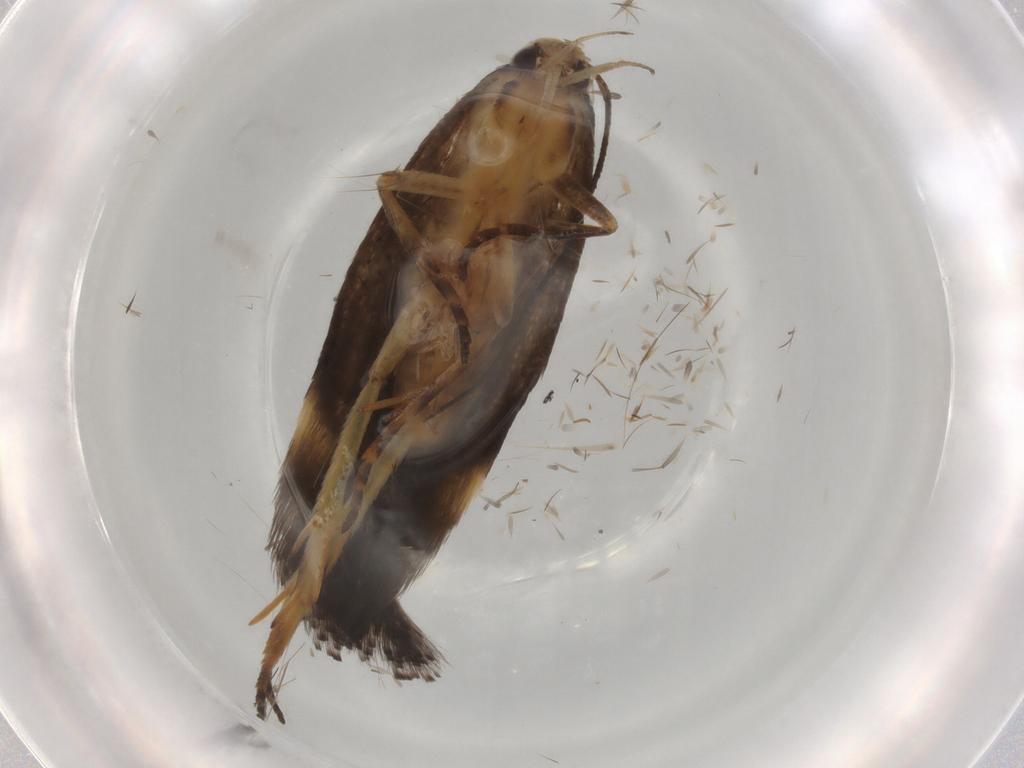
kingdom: Animalia
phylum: Arthropoda
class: Insecta
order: Lepidoptera
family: Gelechiidae
